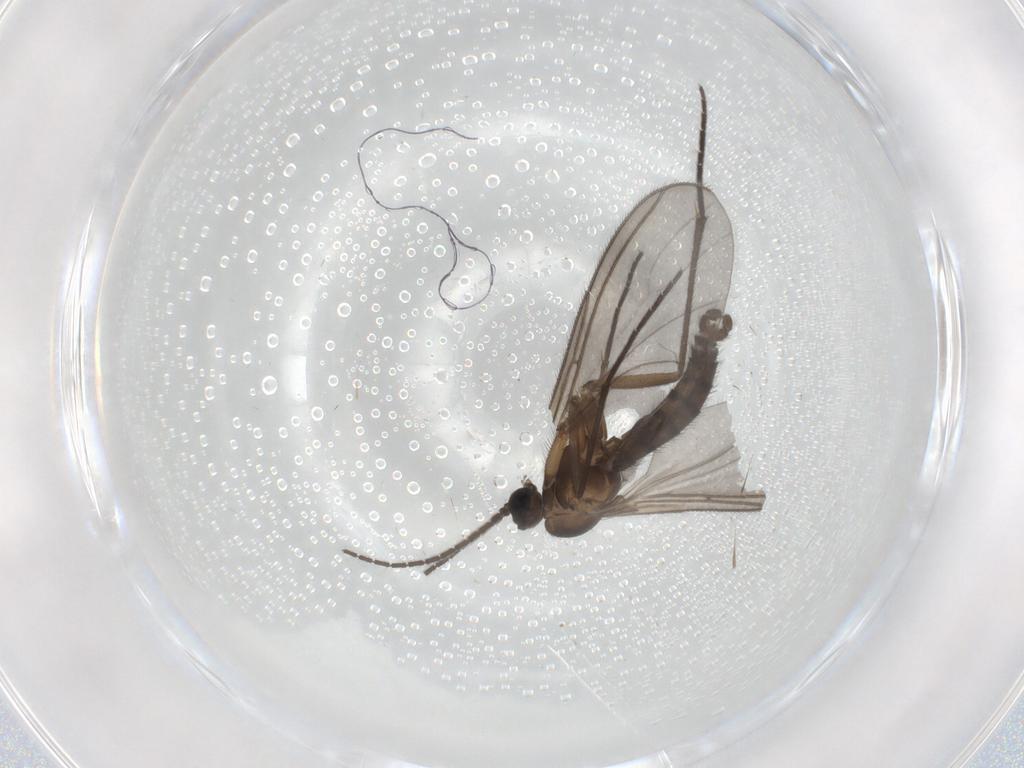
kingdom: Animalia
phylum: Arthropoda
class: Insecta
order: Diptera
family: Sciaridae
